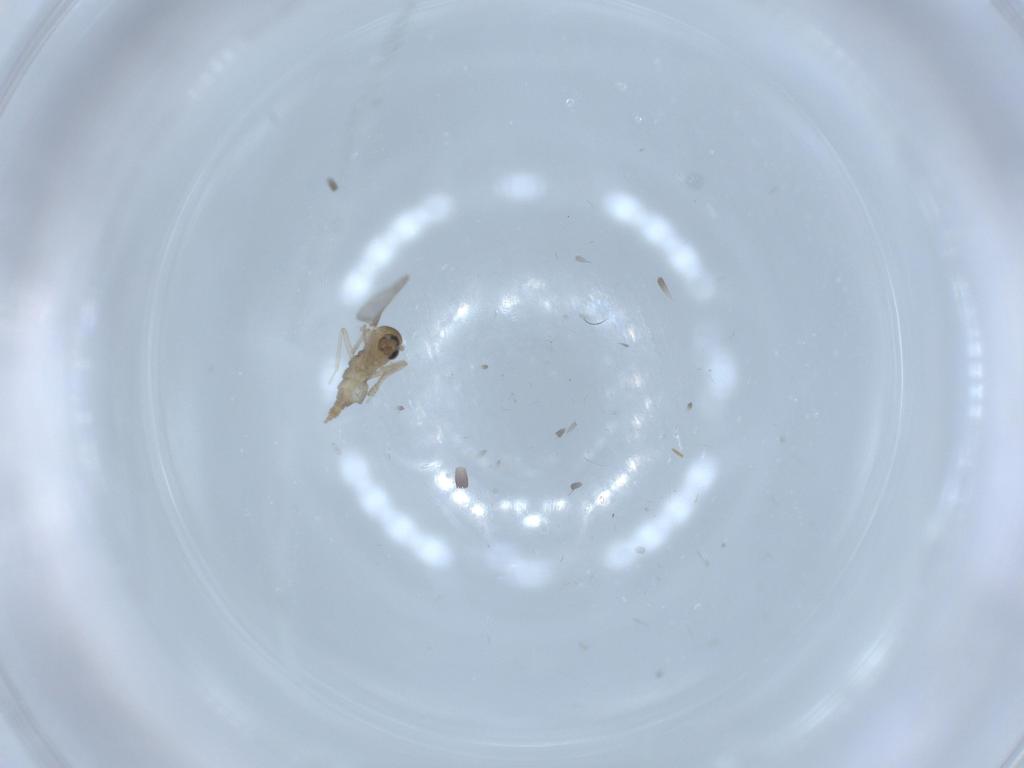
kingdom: Animalia
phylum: Arthropoda
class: Insecta
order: Diptera
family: Cecidomyiidae
